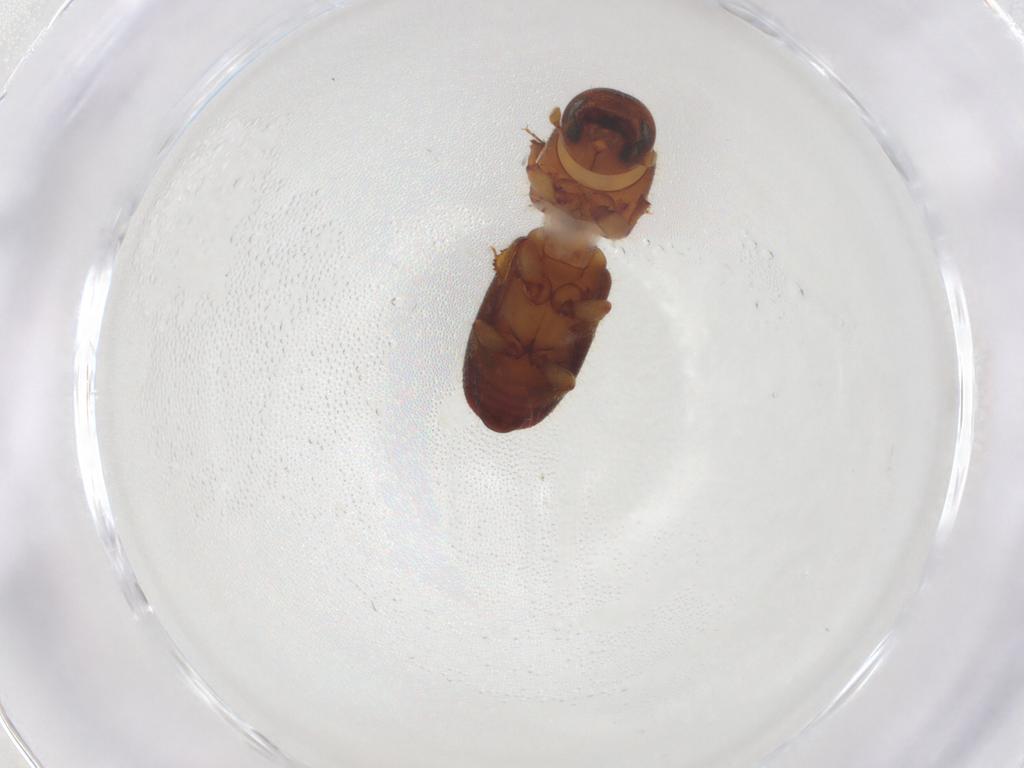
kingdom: Animalia
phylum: Arthropoda
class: Insecta
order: Coleoptera
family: Curculionidae
